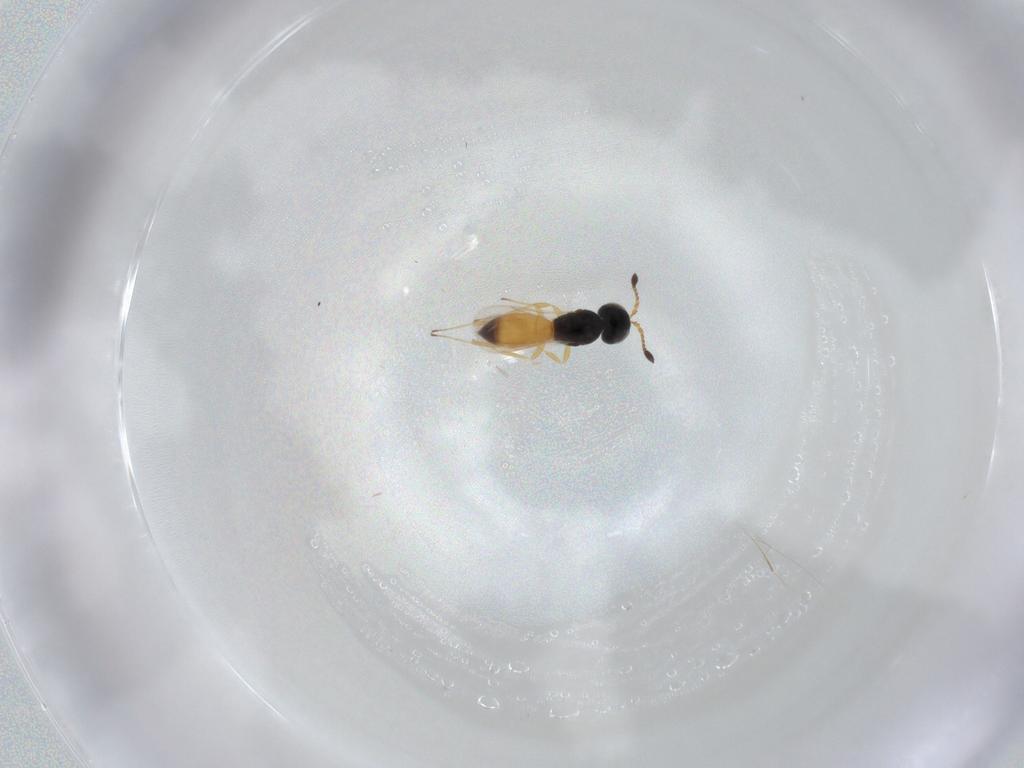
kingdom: Animalia
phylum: Arthropoda
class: Insecta
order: Hymenoptera
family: Scelionidae
